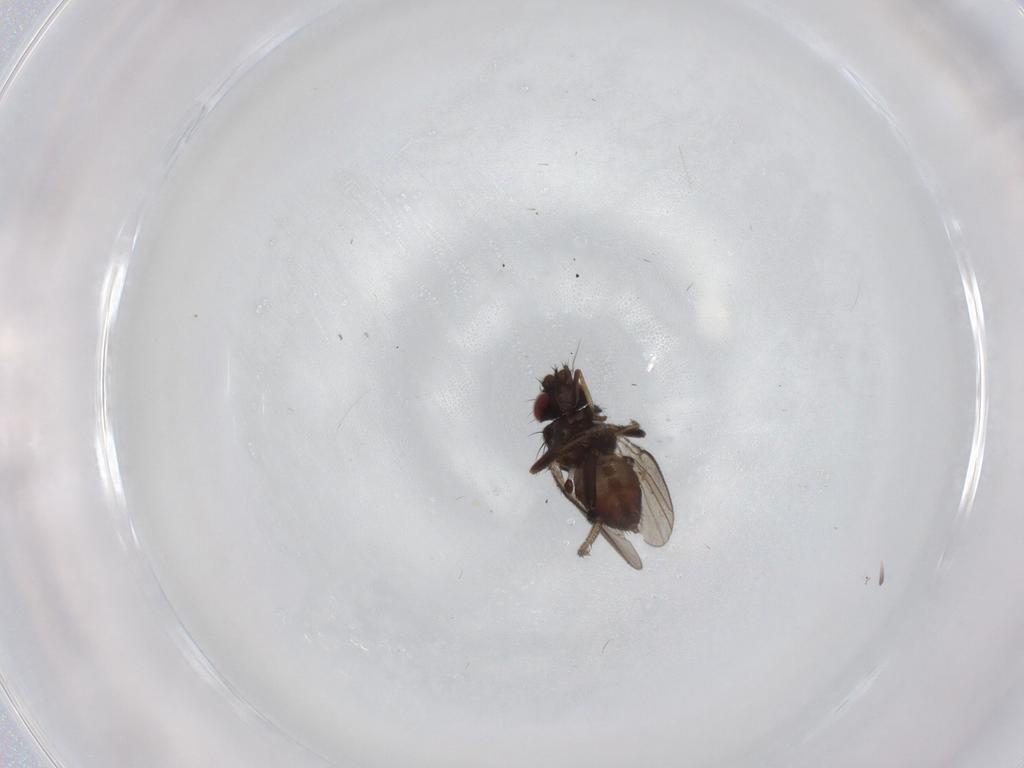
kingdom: Animalia
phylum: Arthropoda
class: Insecta
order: Diptera
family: Milichiidae
